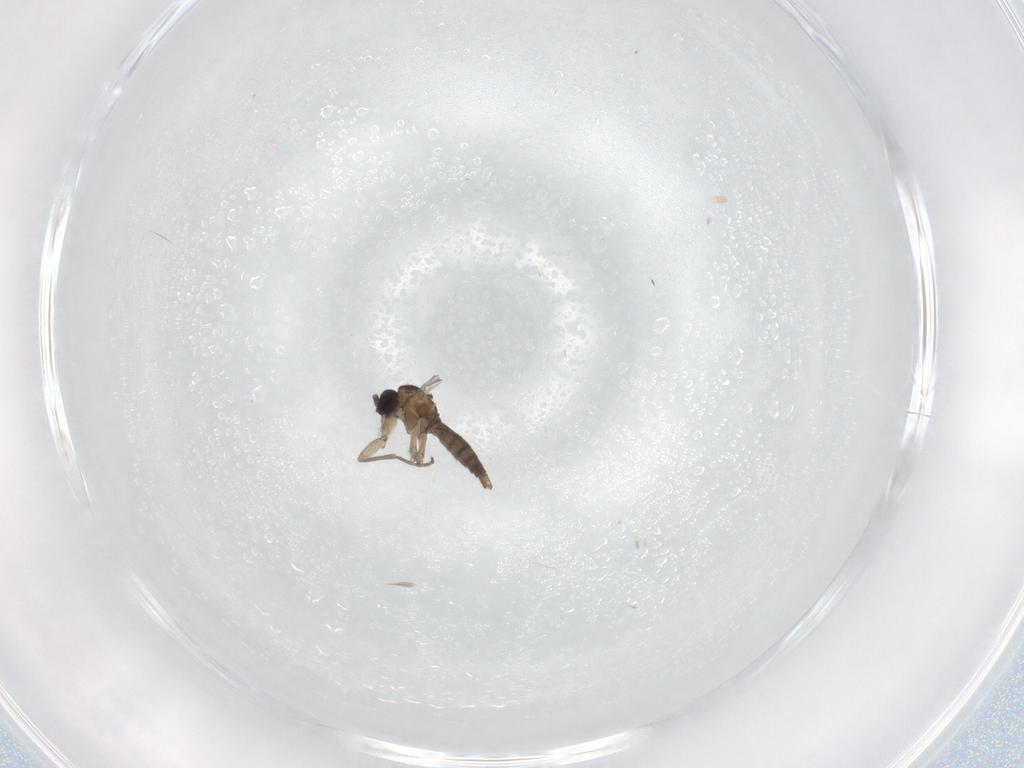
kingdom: Animalia
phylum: Arthropoda
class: Insecta
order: Diptera
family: Sciaridae
